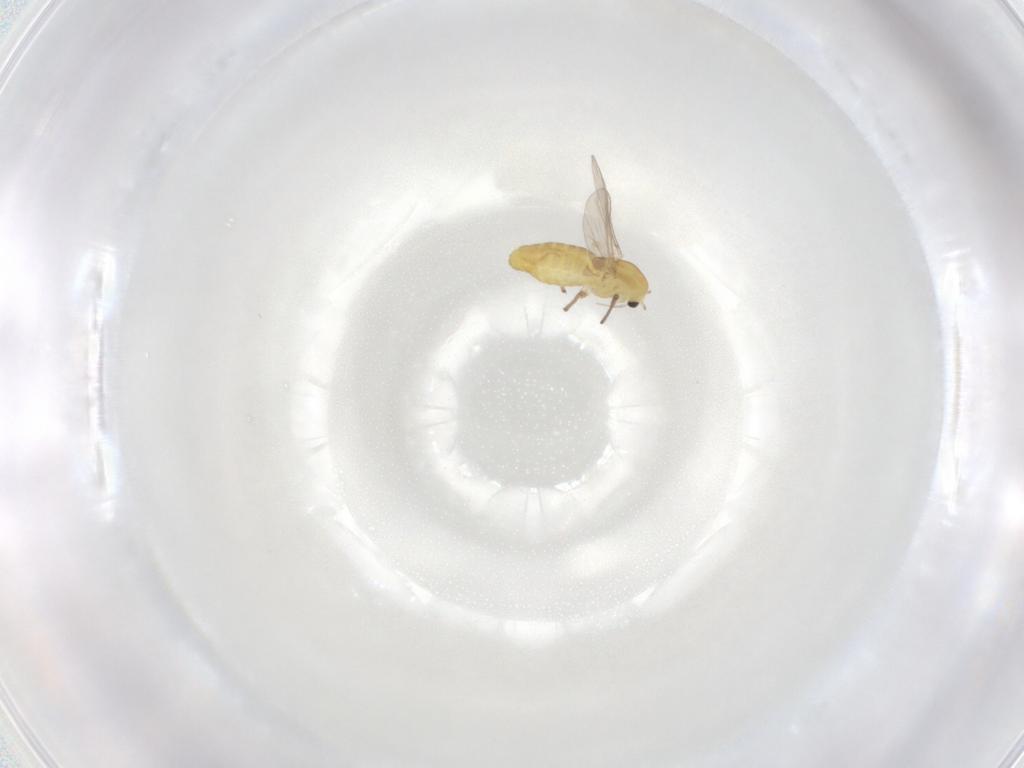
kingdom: Animalia
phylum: Arthropoda
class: Insecta
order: Diptera
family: Chironomidae
